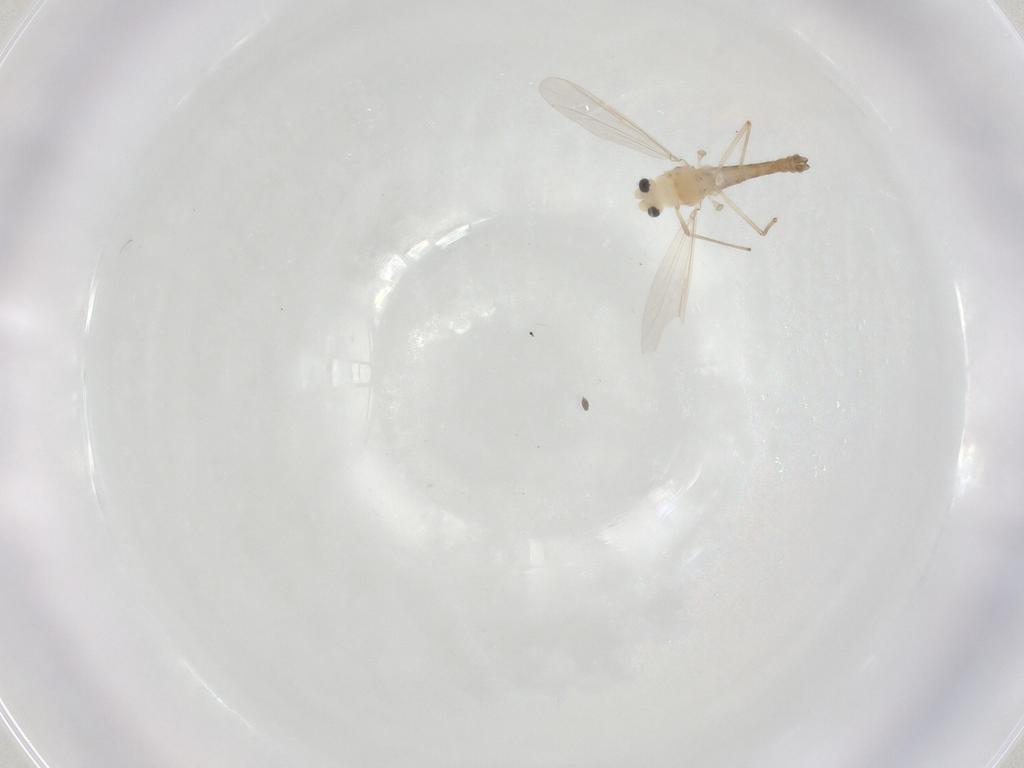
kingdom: Animalia
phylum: Arthropoda
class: Insecta
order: Diptera
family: Chironomidae
